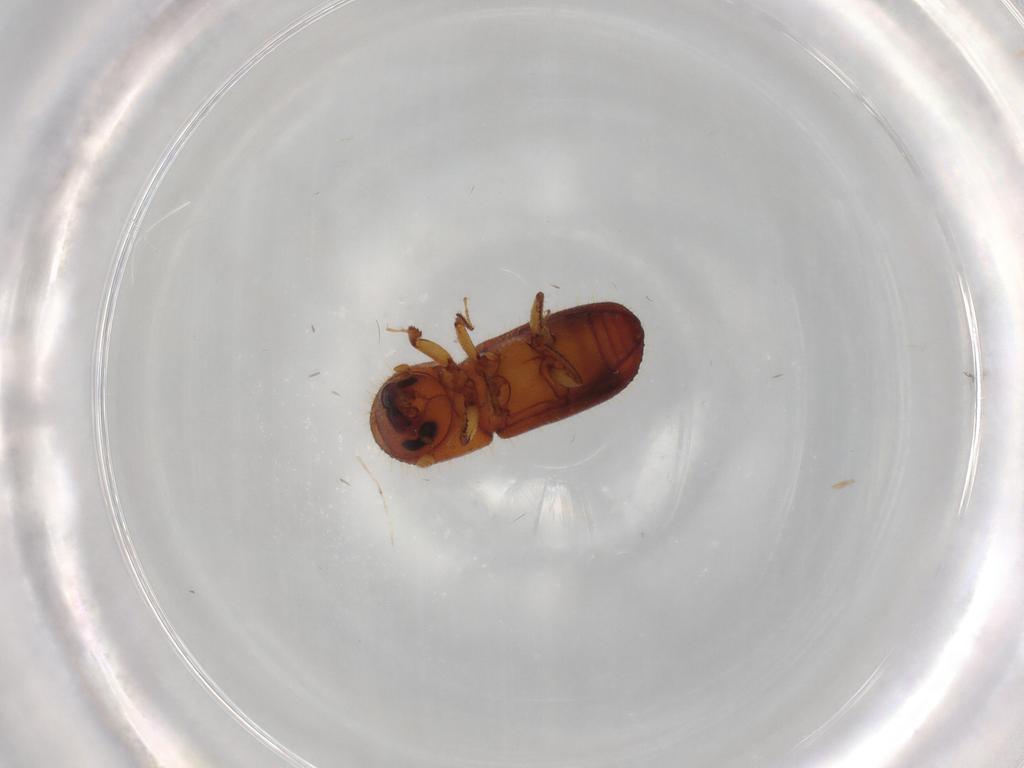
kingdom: Animalia
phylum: Arthropoda
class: Insecta
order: Coleoptera
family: Curculionidae
